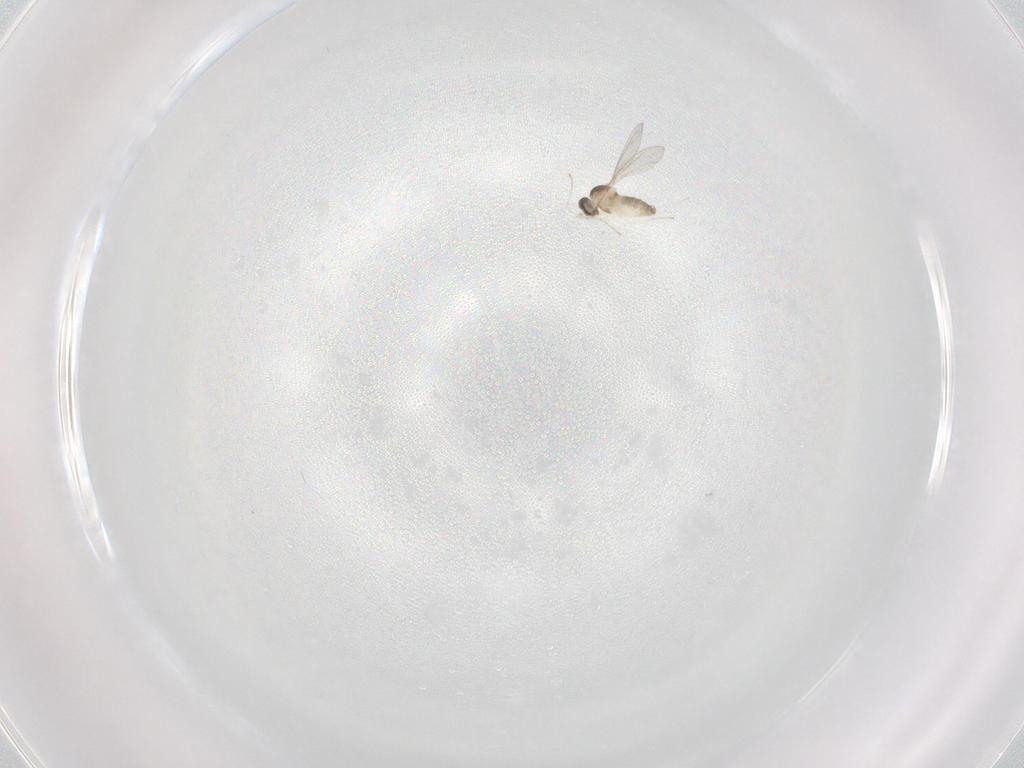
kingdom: Animalia
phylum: Arthropoda
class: Insecta
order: Diptera
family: Cecidomyiidae
